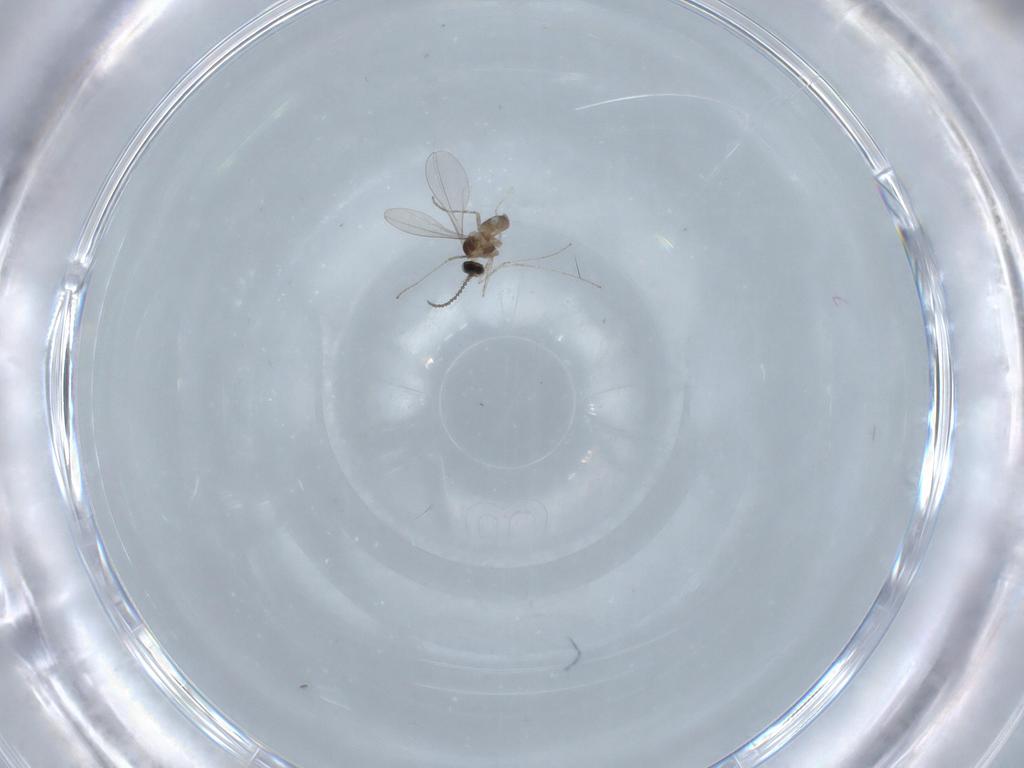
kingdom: Animalia
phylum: Arthropoda
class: Insecta
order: Diptera
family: Cecidomyiidae
